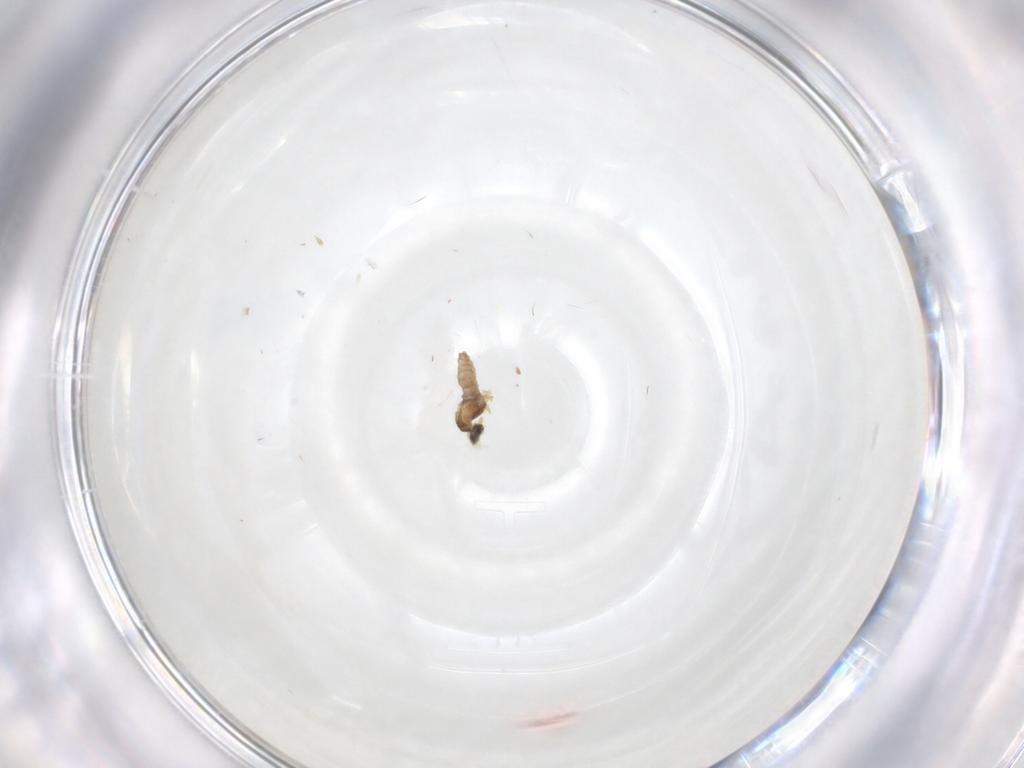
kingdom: Animalia
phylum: Arthropoda
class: Insecta
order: Diptera
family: Cecidomyiidae
